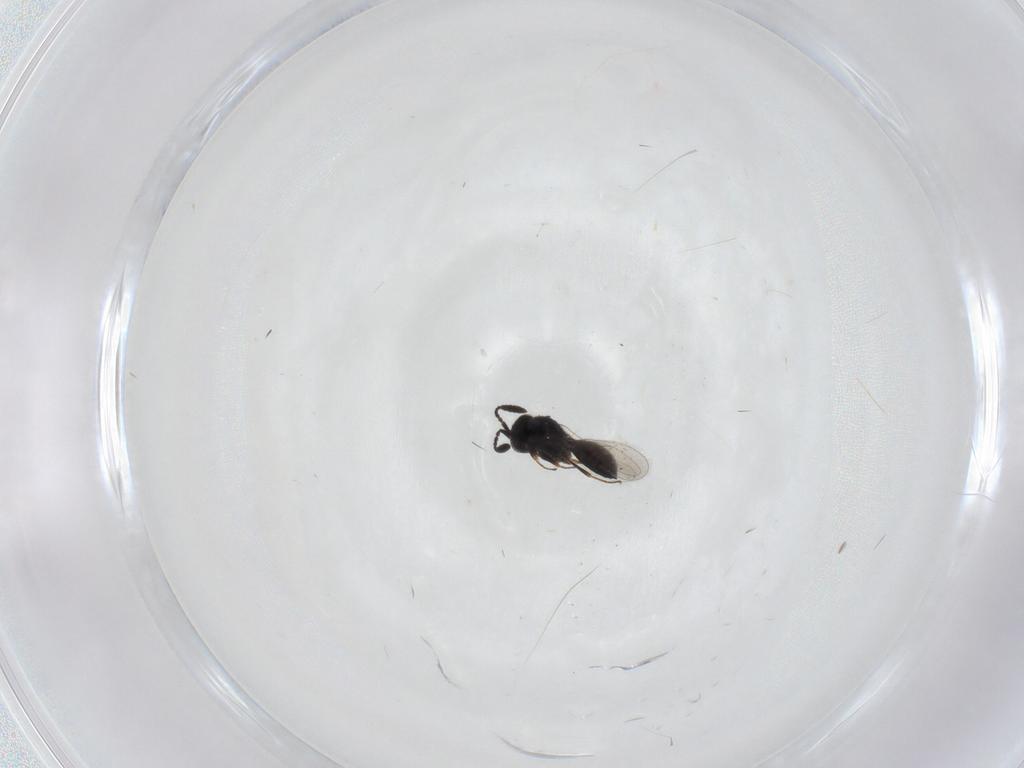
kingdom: Animalia
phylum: Arthropoda
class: Insecta
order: Hymenoptera
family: Scelionidae
